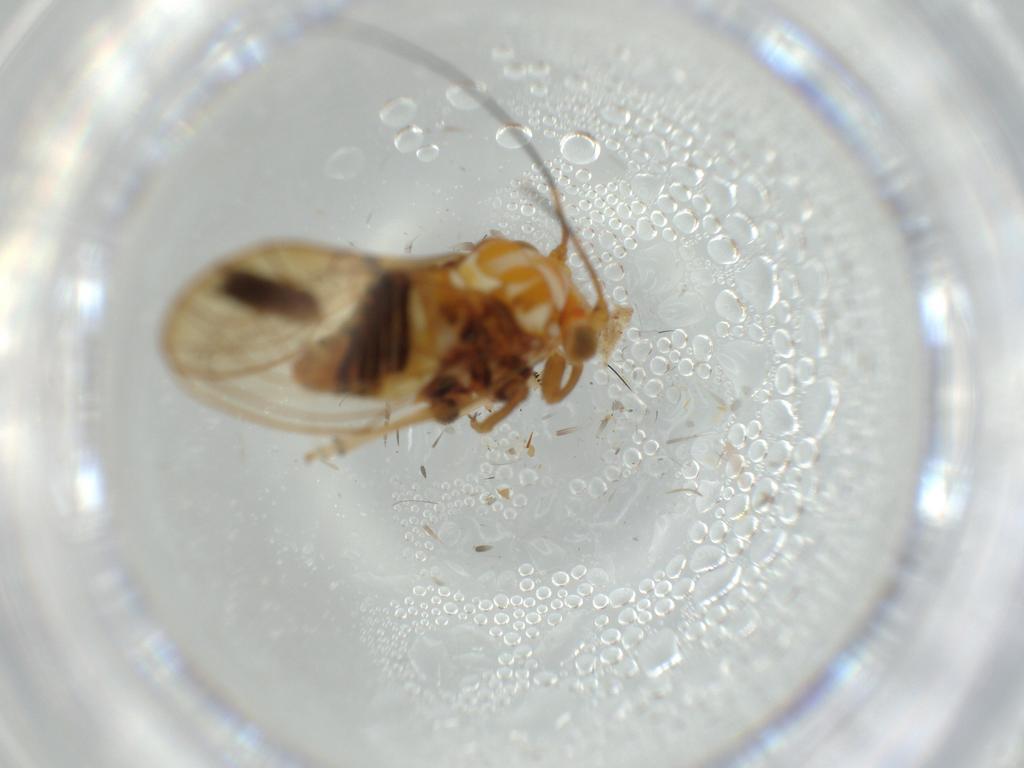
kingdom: Animalia
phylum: Arthropoda
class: Insecta
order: Hemiptera
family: Psyllidae
